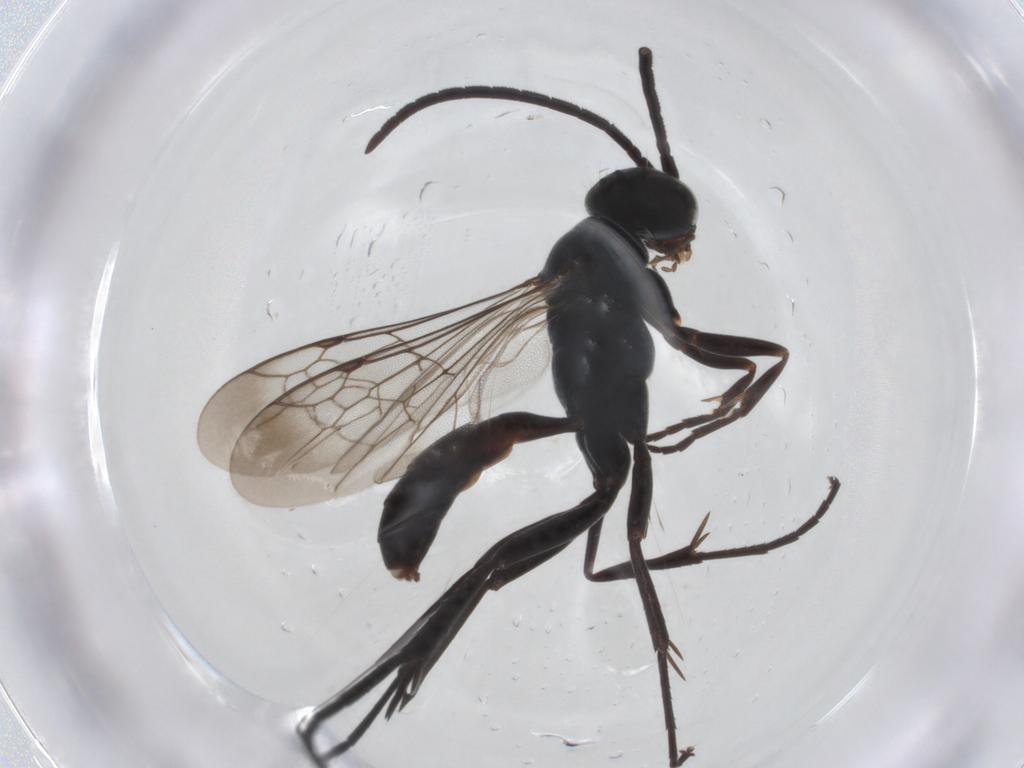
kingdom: Animalia
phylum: Arthropoda
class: Insecta
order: Hymenoptera
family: Pompilidae
